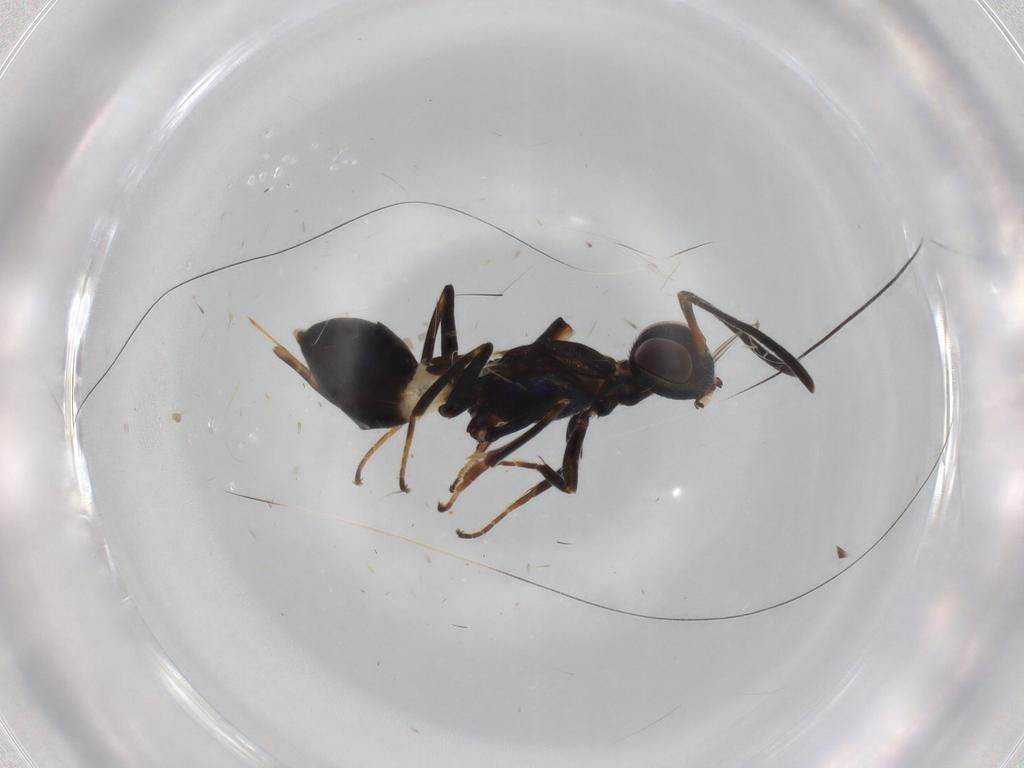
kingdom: Animalia
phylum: Arthropoda
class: Insecta
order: Hymenoptera
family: Eupelmidae
